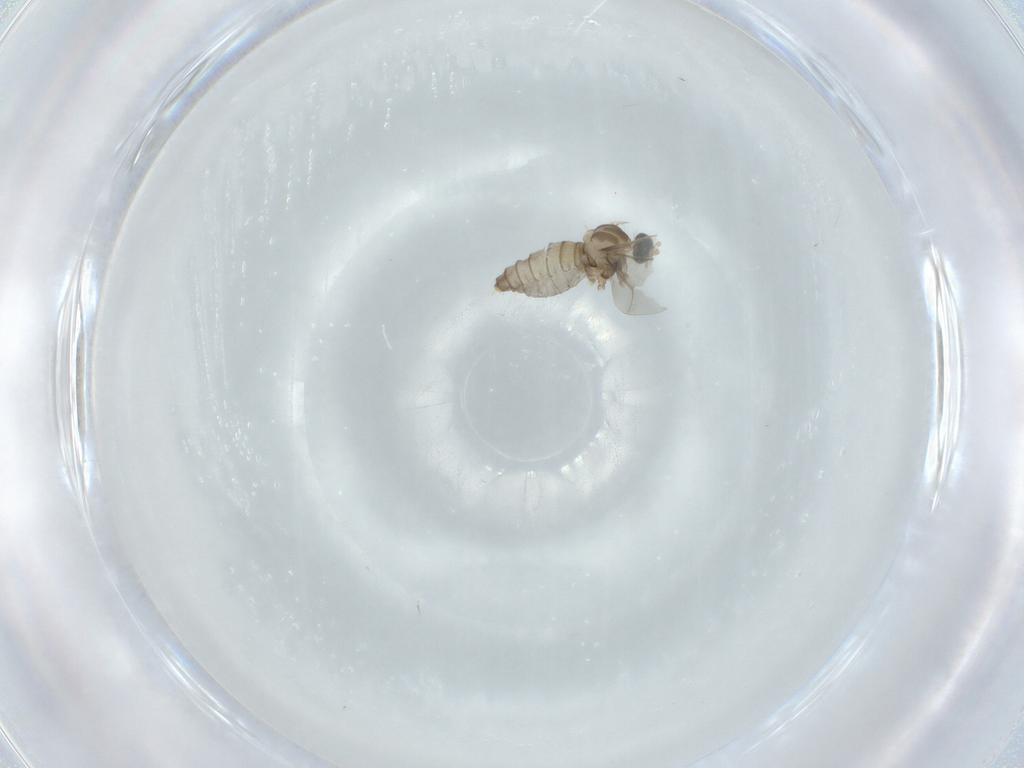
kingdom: Animalia
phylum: Arthropoda
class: Insecta
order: Diptera
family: Cecidomyiidae
